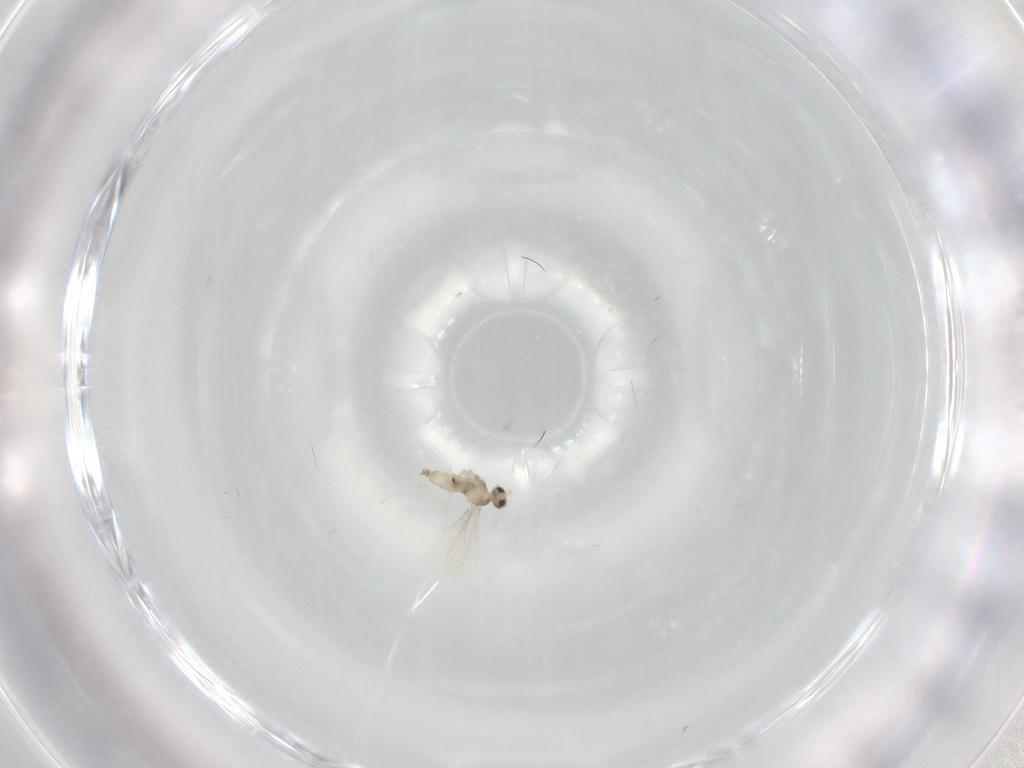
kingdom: Animalia
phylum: Arthropoda
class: Insecta
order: Diptera
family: Cecidomyiidae
